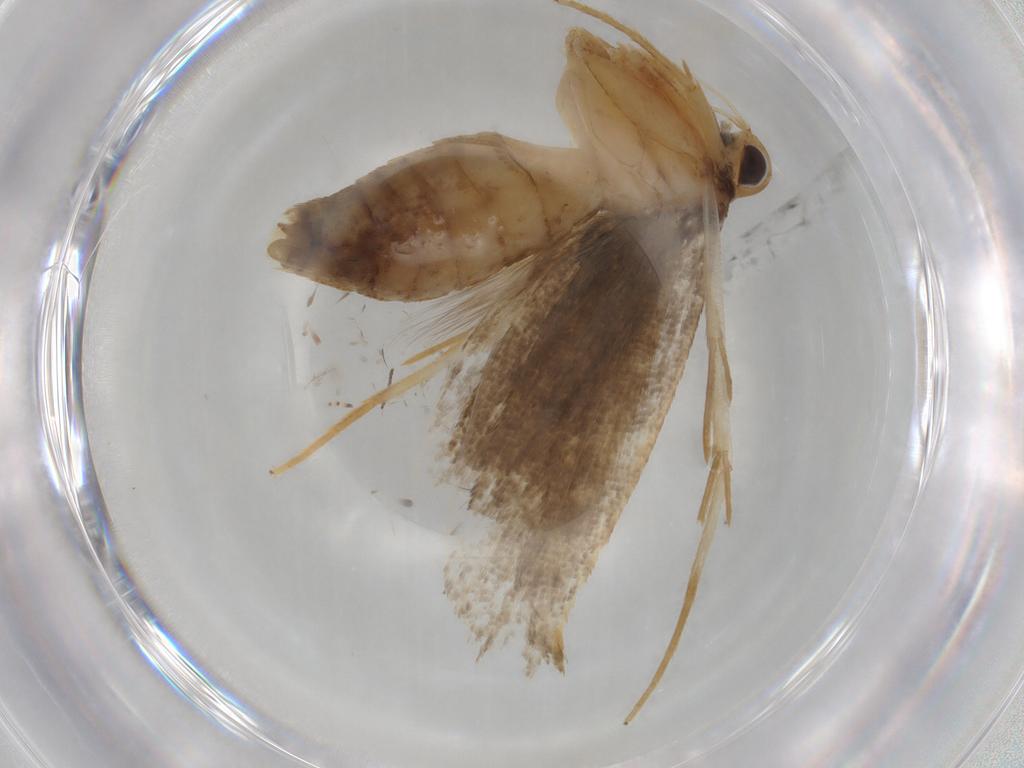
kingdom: Animalia
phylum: Arthropoda
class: Insecta
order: Lepidoptera
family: Lecithoceridae
